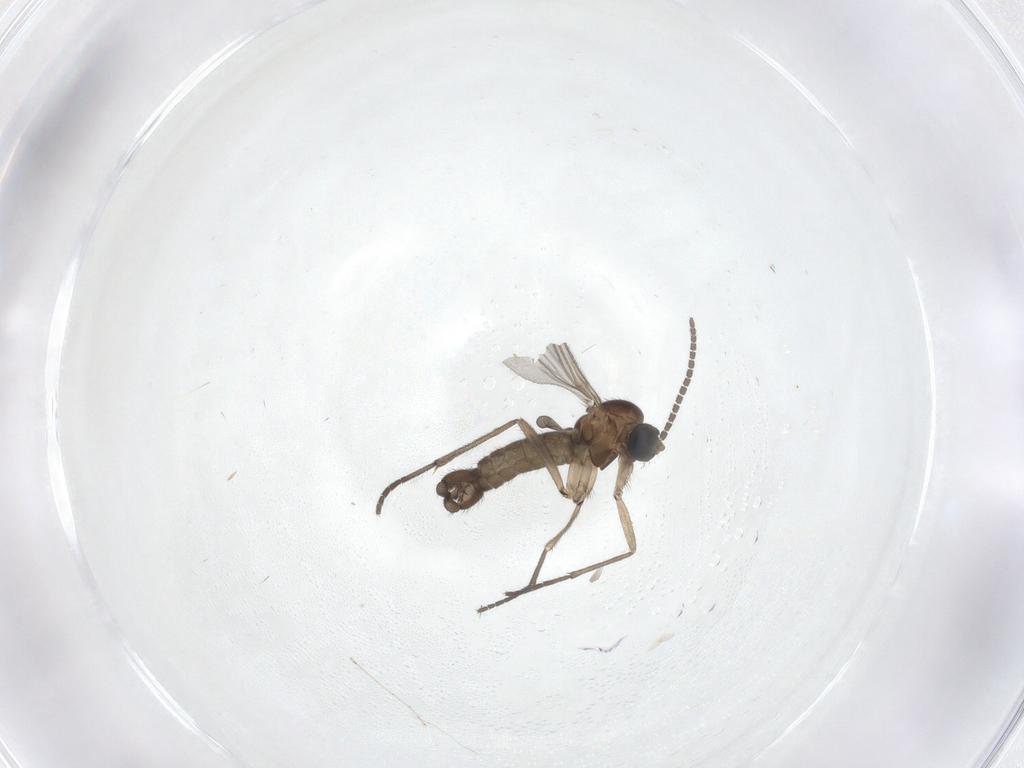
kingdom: Animalia
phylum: Arthropoda
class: Insecta
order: Diptera
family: Sciaridae
